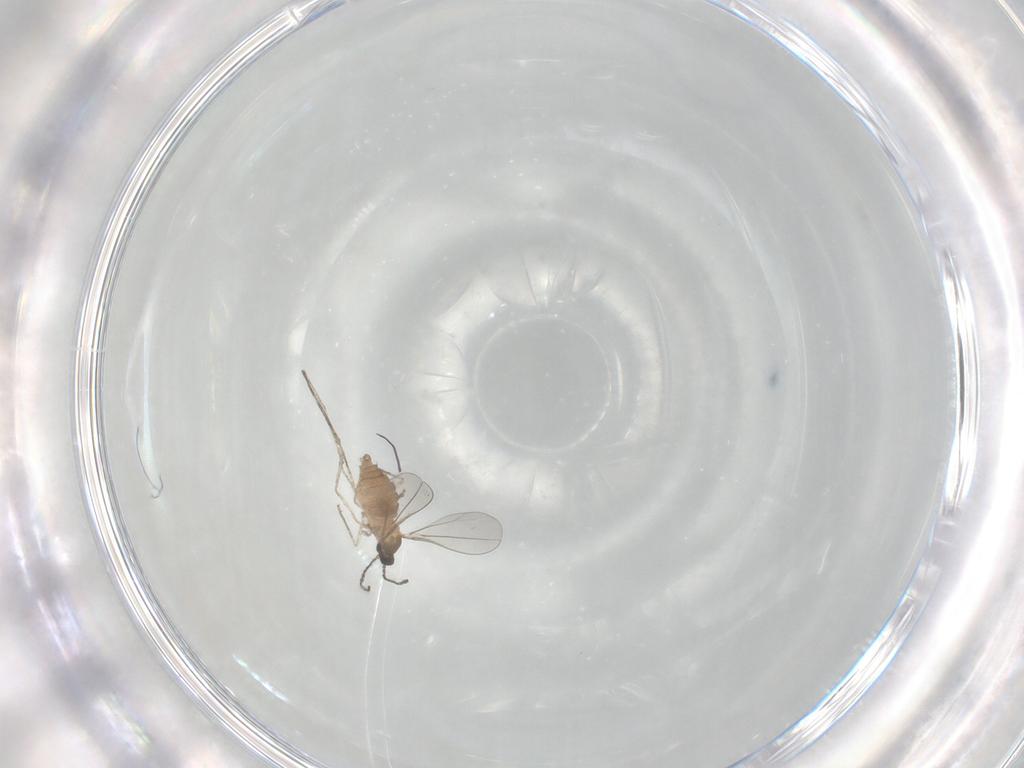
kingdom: Animalia
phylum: Arthropoda
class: Insecta
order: Diptera
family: Cecidomyiidae
